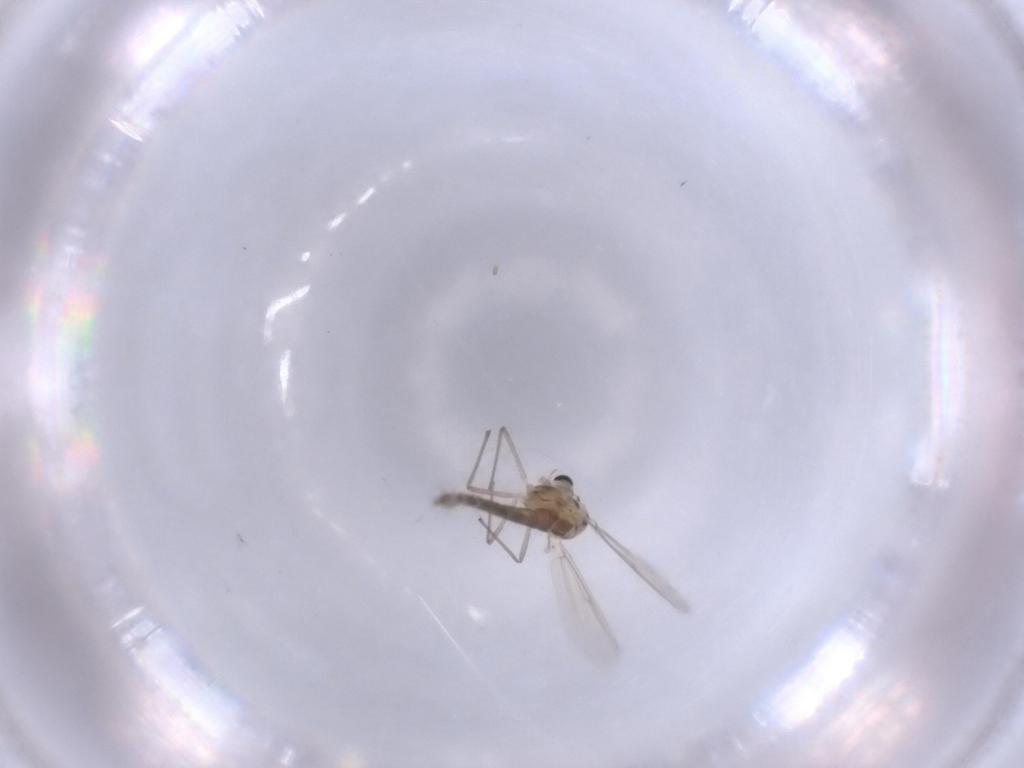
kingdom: Animalia
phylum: Arthropoda
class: Insecta
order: Diptera
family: Chironomidae
